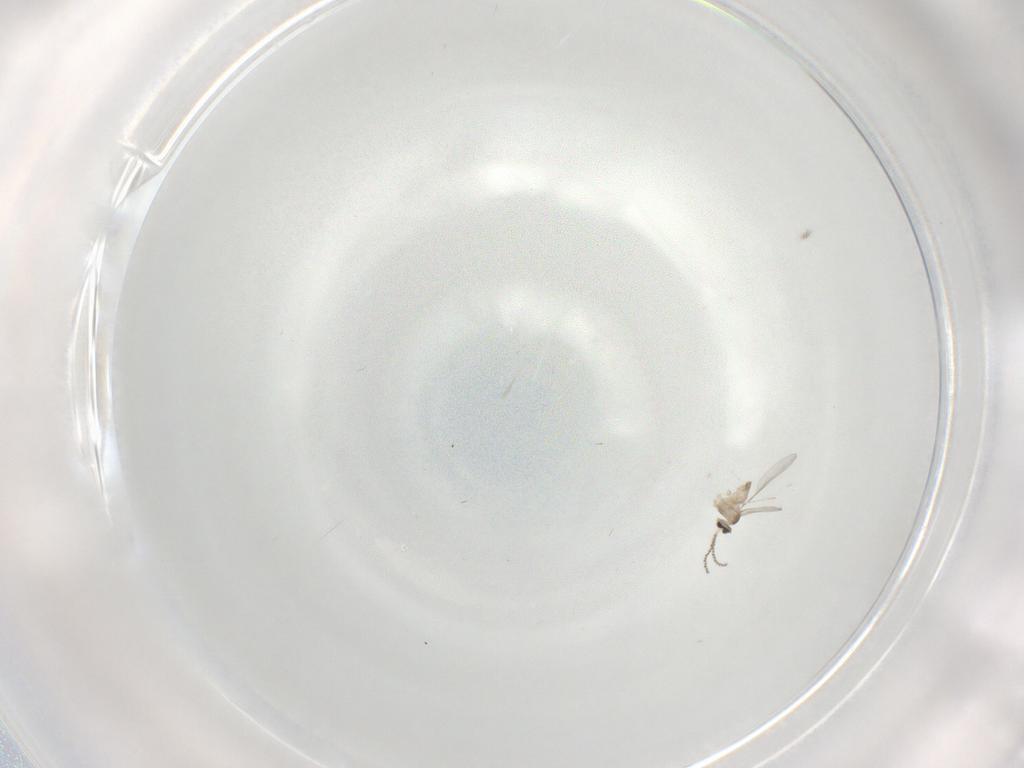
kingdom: Animalia
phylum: Arthropoda
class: Insecta
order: Diptera
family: Cecidomyiidae
